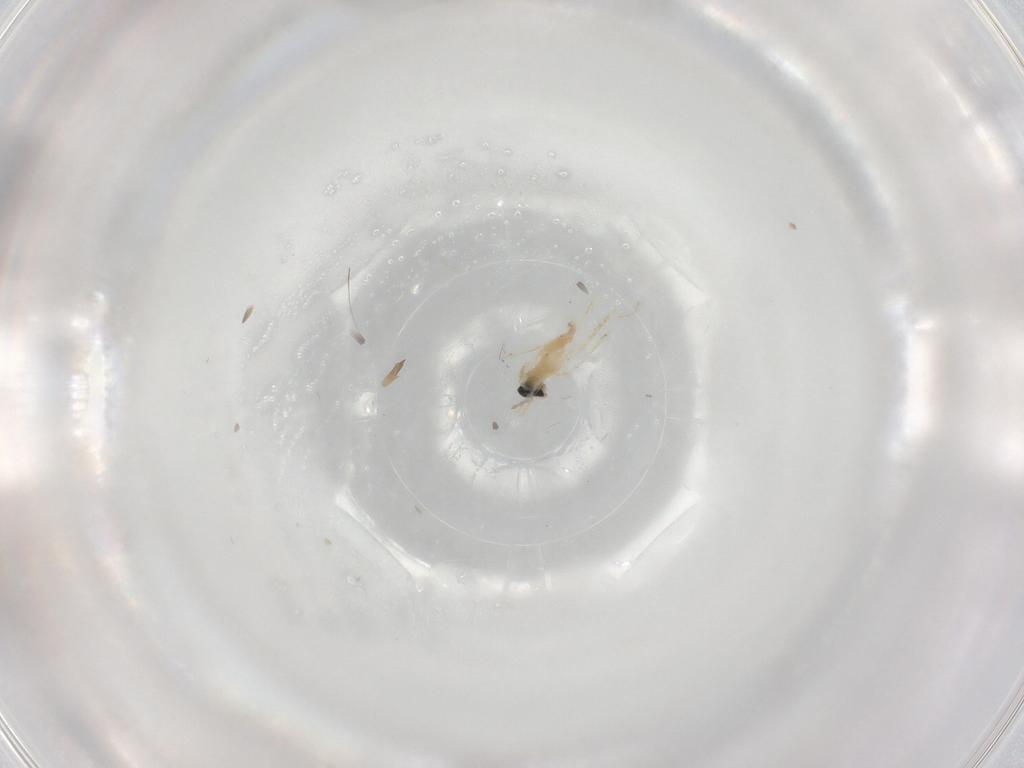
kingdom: Animalia
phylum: Arthropoda
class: Insecta
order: Diptera
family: Cecidomyiidae
